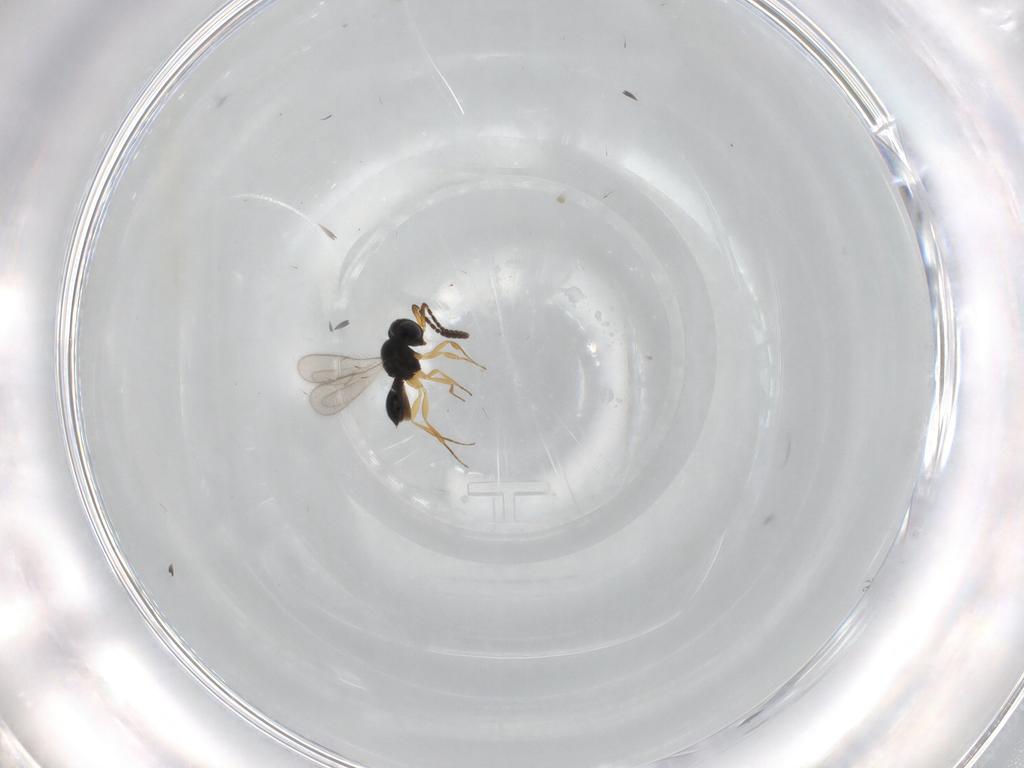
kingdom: Animalia
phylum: Arthropoda
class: Insecta
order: Hymenoptera
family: Scelionidae
